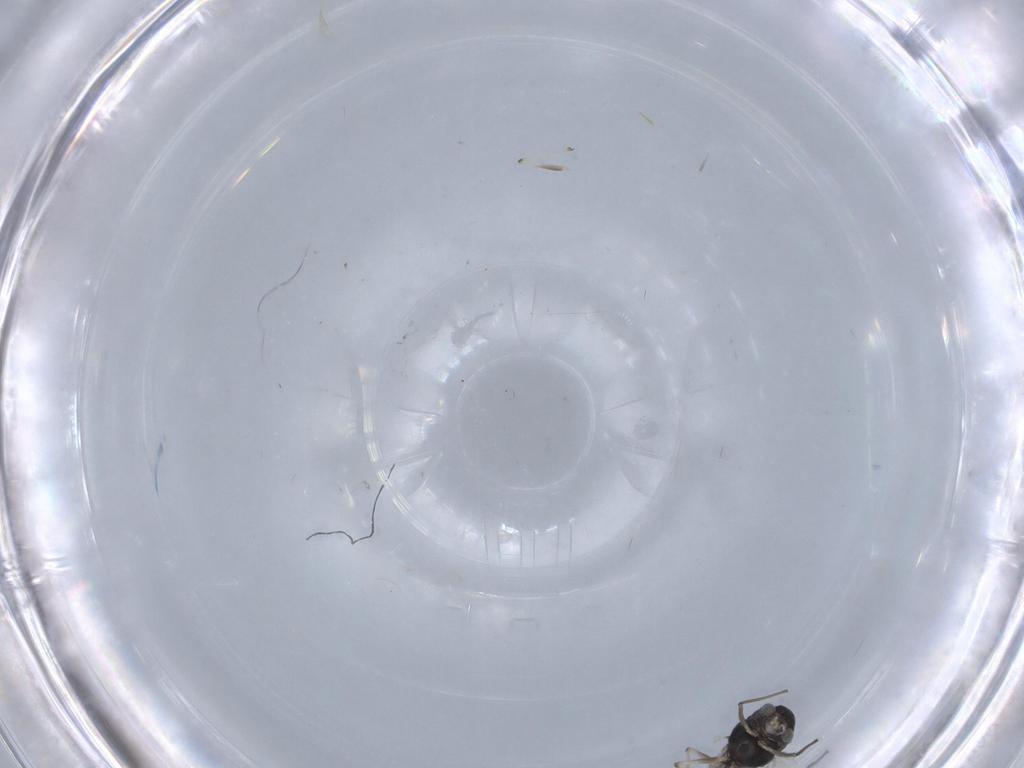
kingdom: Animalia
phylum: Arthropoda
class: Insecta
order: Diptera
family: Chironomidae
